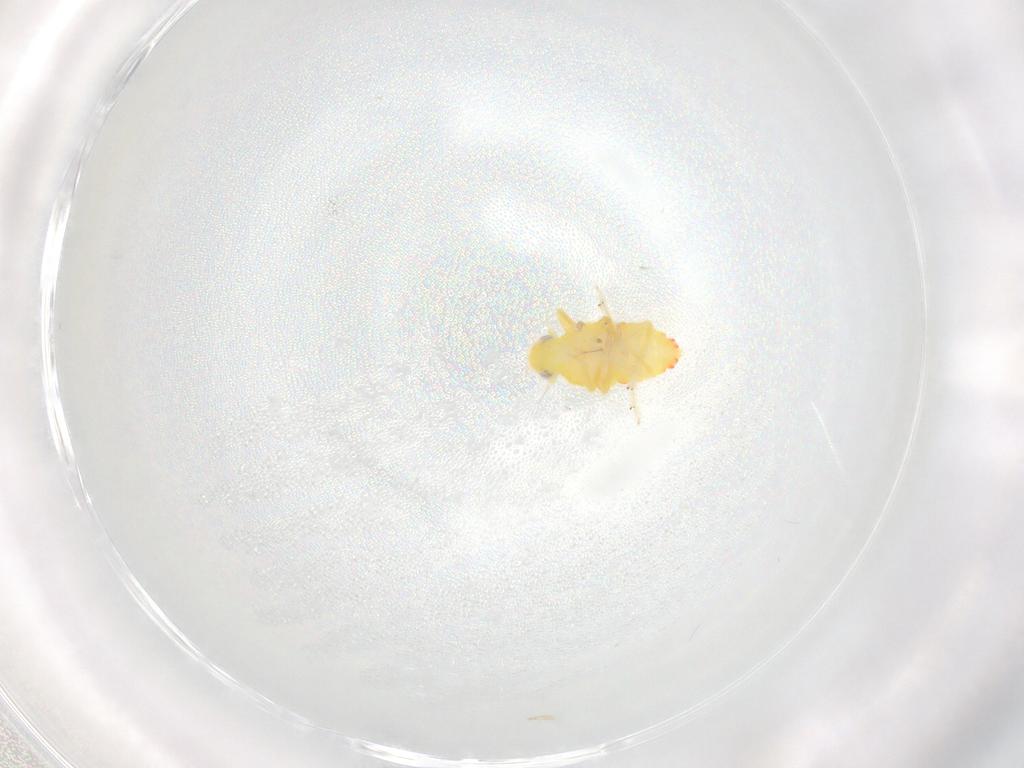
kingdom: Animalia
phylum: Arthropoda
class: Insecta
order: Hemiptera
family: Tropiduchidae
